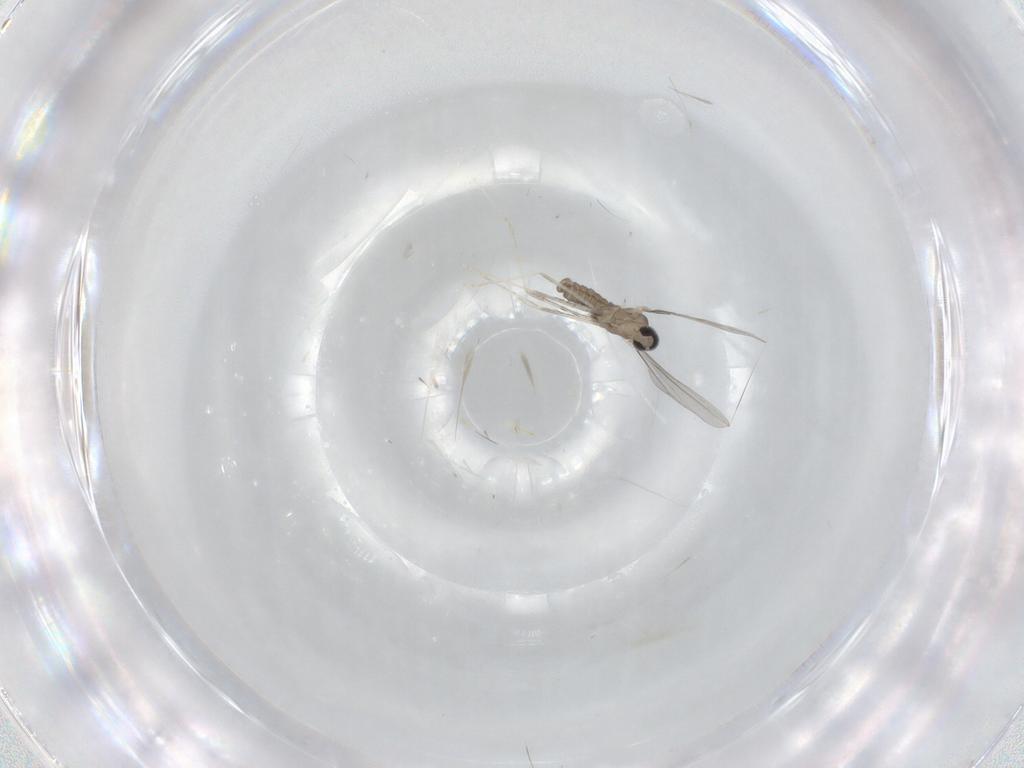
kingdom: Animalia
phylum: Arthropoda
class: Insecta
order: Diptera
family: Cecidomyiidae
